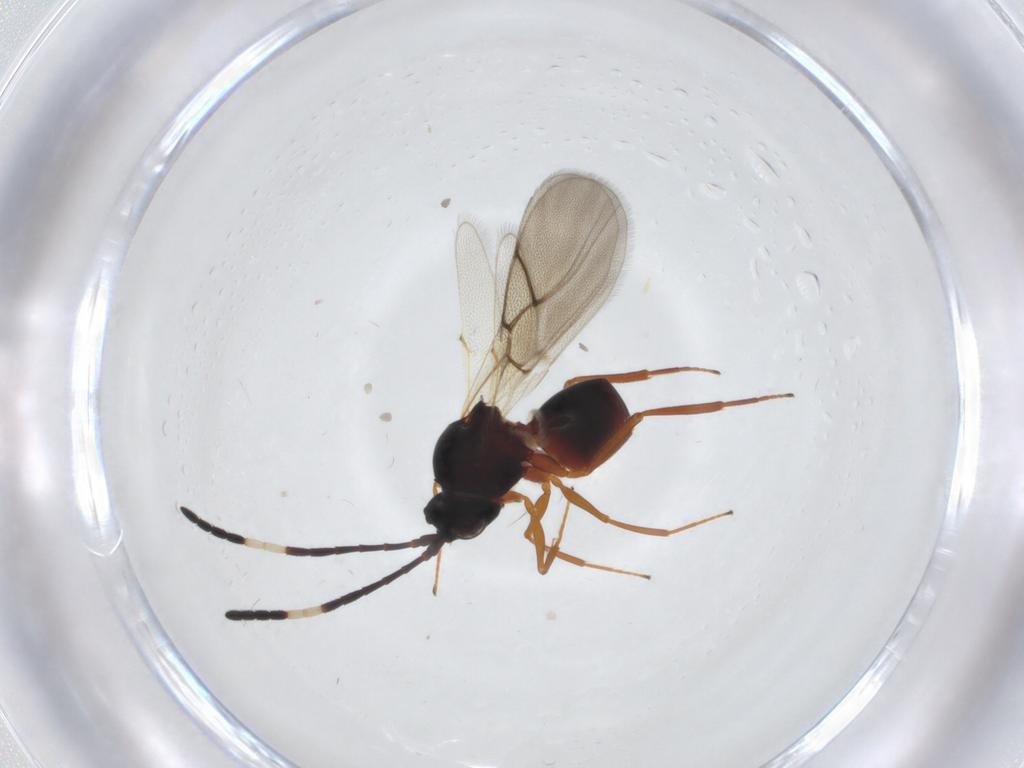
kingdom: Animalia
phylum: Arthropoda
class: Insecta
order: Hymenoptera
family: Figitidae
